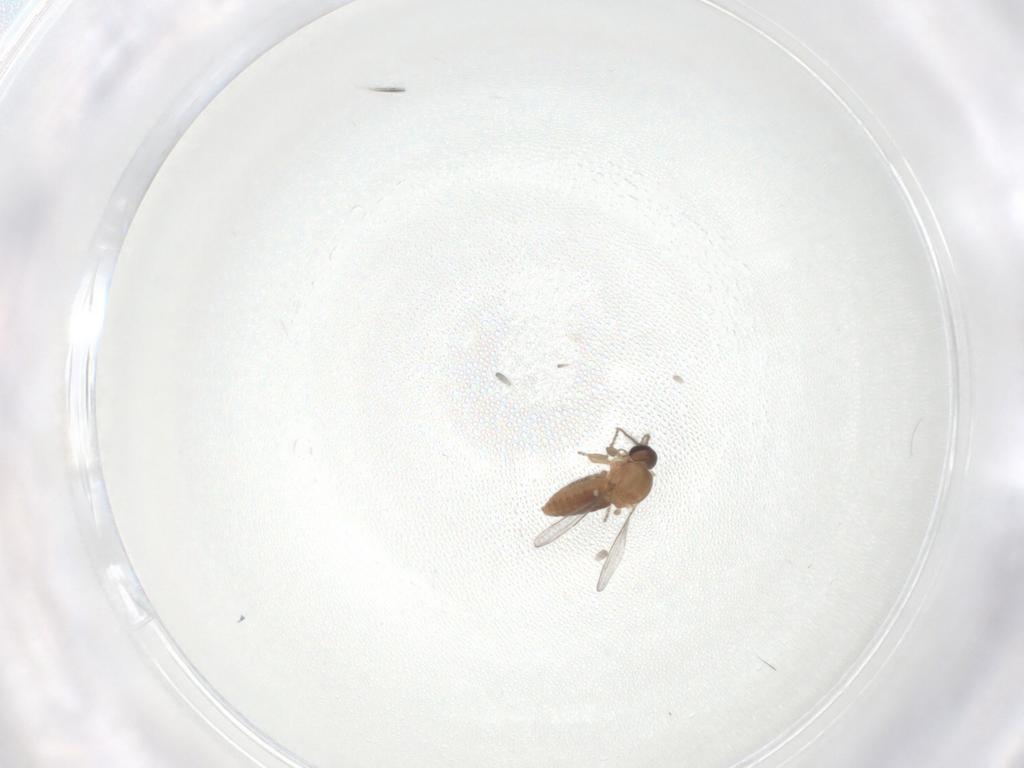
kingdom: Animalia
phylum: Arthropoda
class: Insecta
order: Diptera
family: Ceratopogonidae
